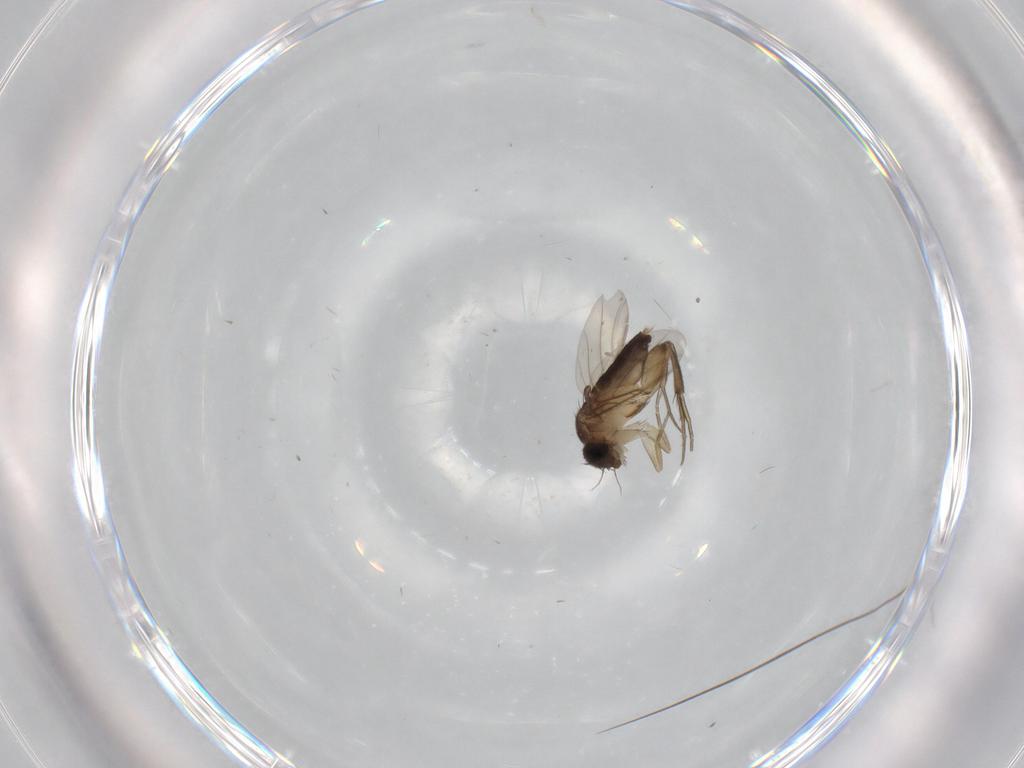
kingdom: Animalia
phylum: Arthropoda
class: Insecta
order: Diptera
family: Phoridae
